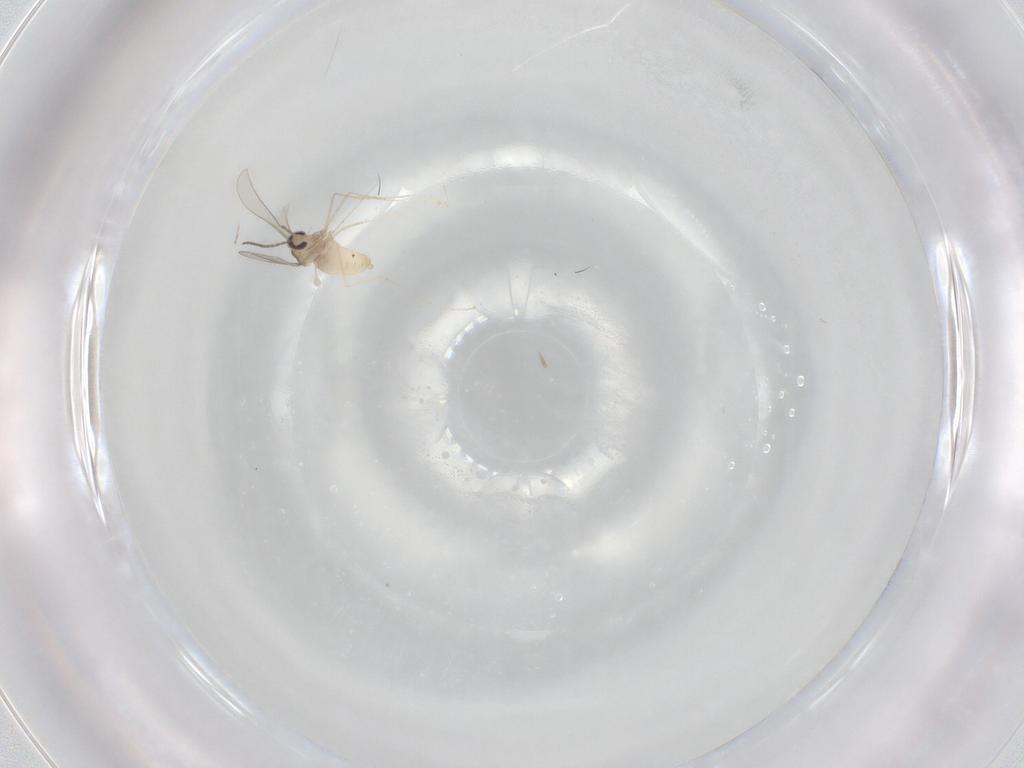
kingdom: Animalia
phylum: Arthropoda
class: Insecta
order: Diptera
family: Cecidomyiidae
